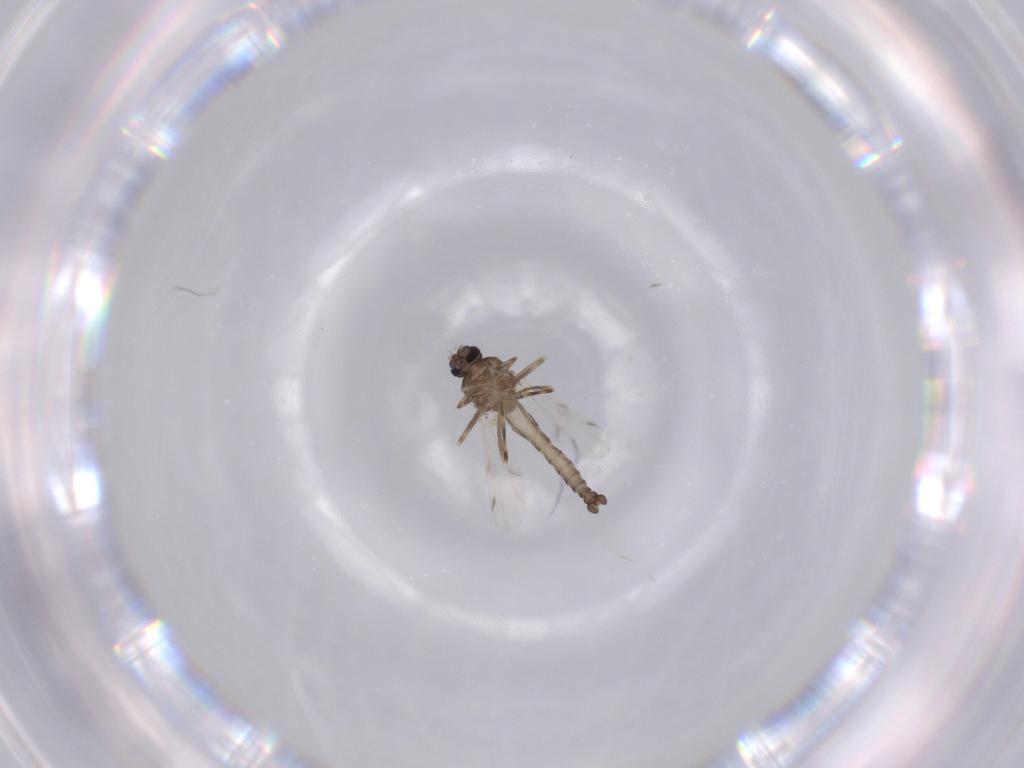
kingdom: Animalia
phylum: Arthropoda
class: Insecta
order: Diptera
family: Ceratopogonidae
